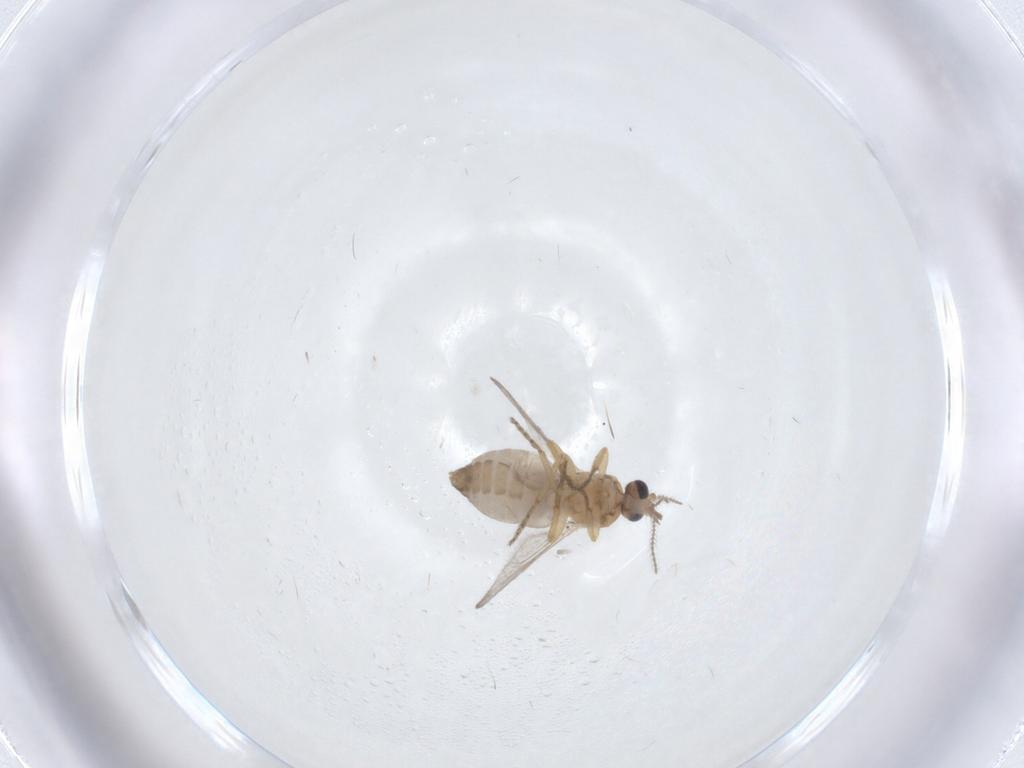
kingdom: Animalia
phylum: Arthropoda
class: Insecta
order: Diptera
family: Ceratopogonidae
